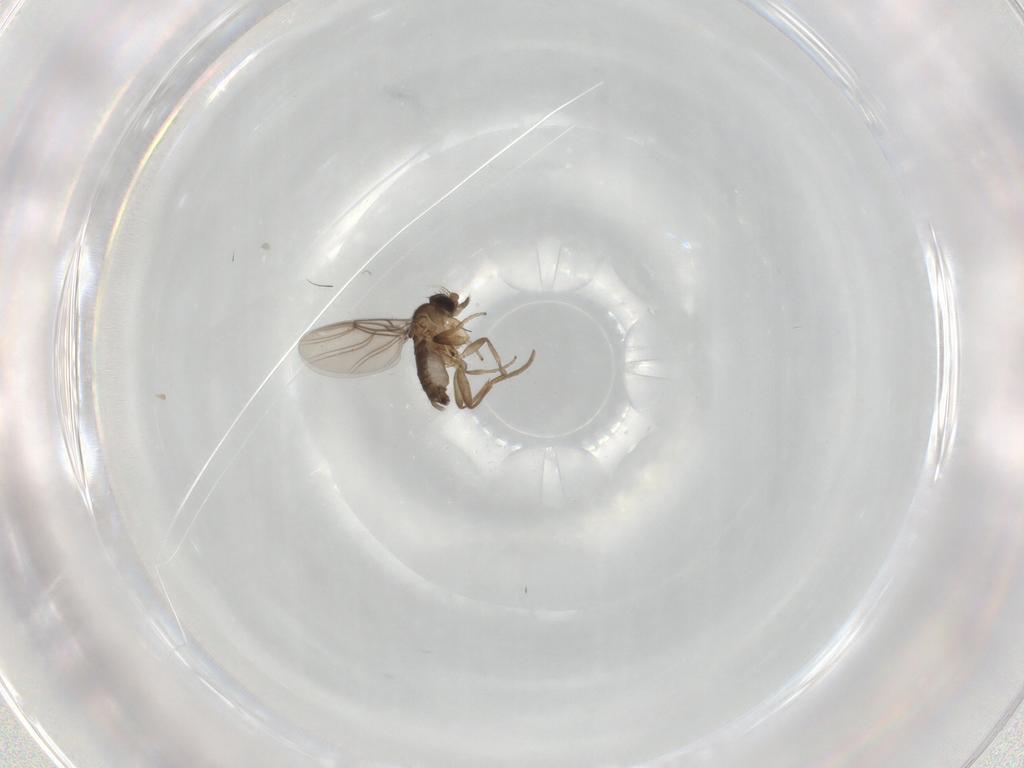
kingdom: Animalia
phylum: Arthropoda
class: Insecta
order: Diptera
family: Phoridae
